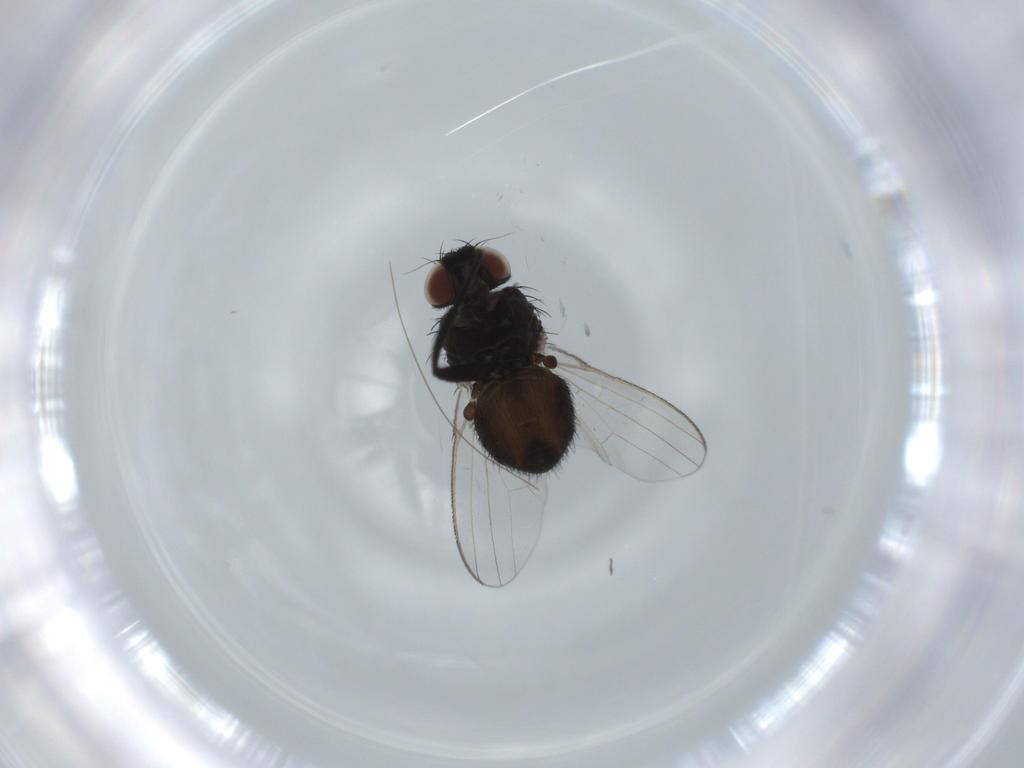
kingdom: Animalia
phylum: Arthropoda
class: Insecta
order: Diptera
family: Milichiidae
